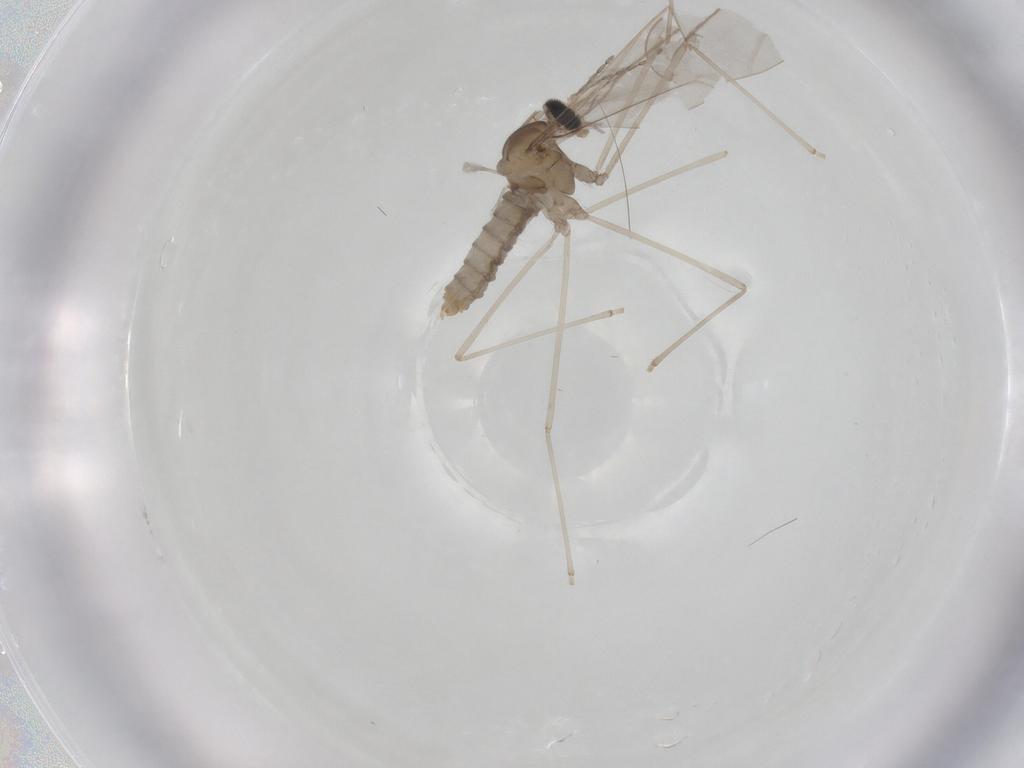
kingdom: Animalia
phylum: Arthropoda
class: Insecta
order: Diptera
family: Cecidomyiidae
